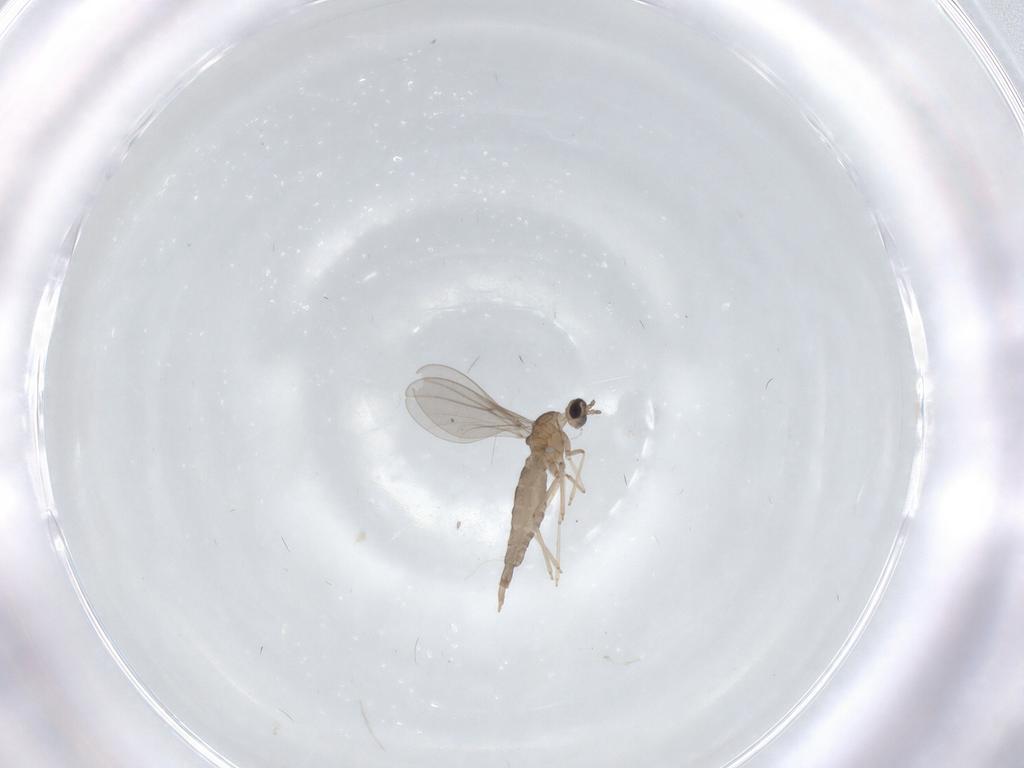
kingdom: Animalia
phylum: Arthropoda
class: Insecta
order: Diptera
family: Cecidomyiidae
